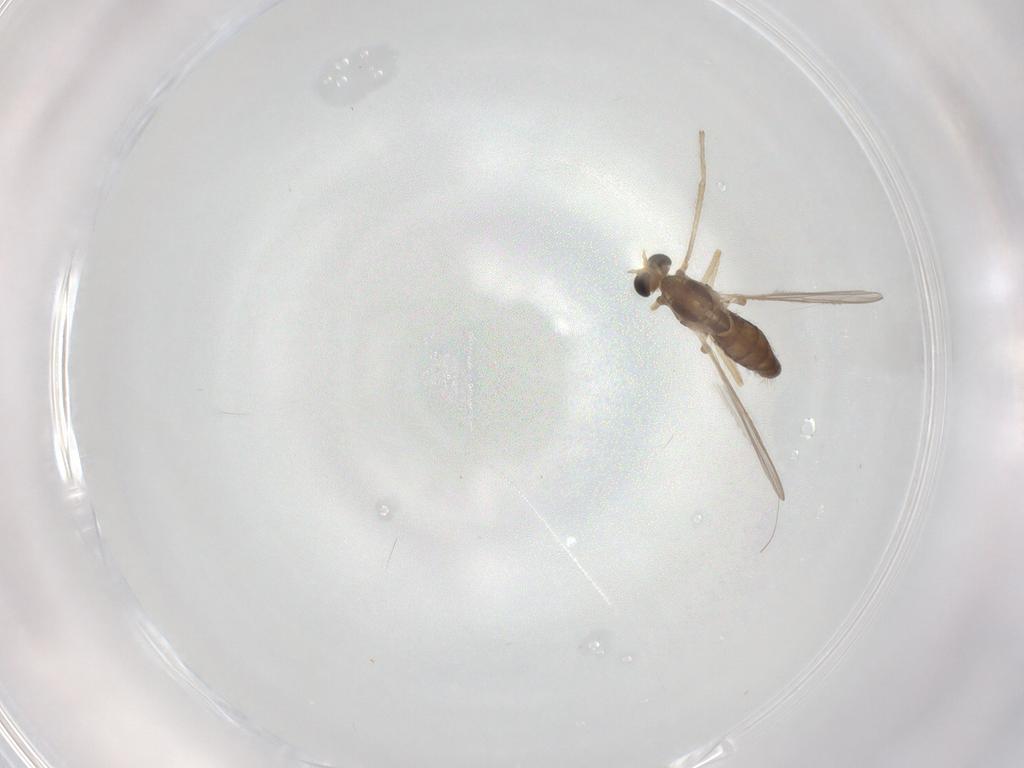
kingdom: Animalia
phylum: Arthropoda
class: Insecta
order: Diptera
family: Chironomidae
